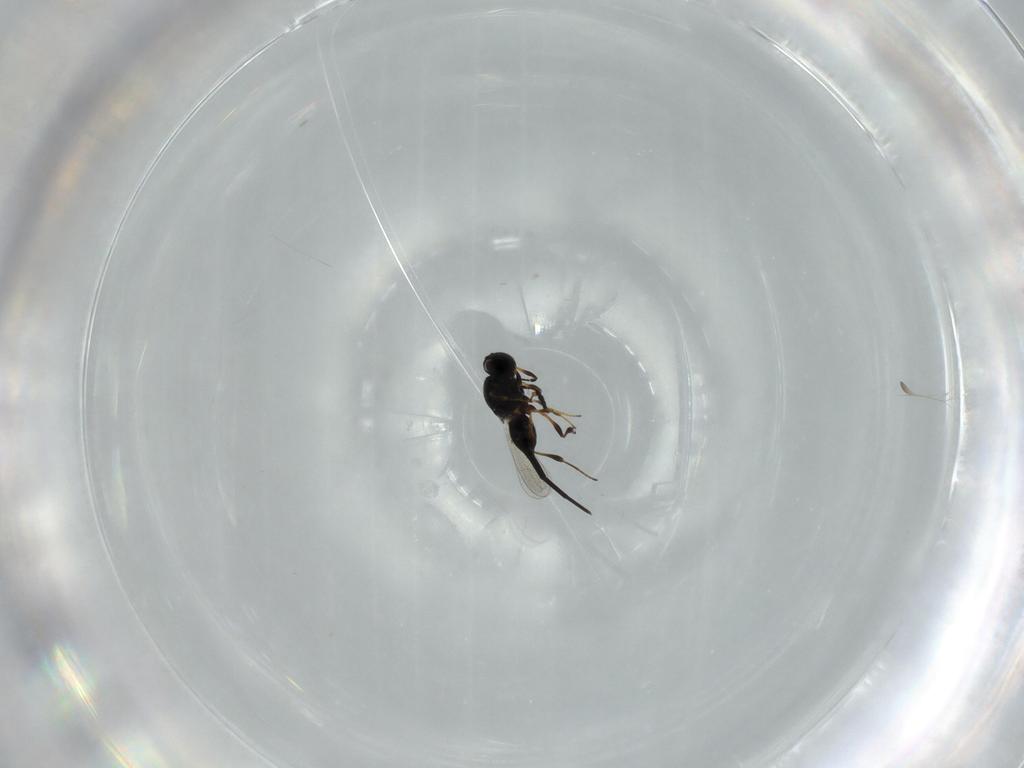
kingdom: Animalia
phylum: Arthropoda
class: Insecta
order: Hymenoptera
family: Platygastridae
